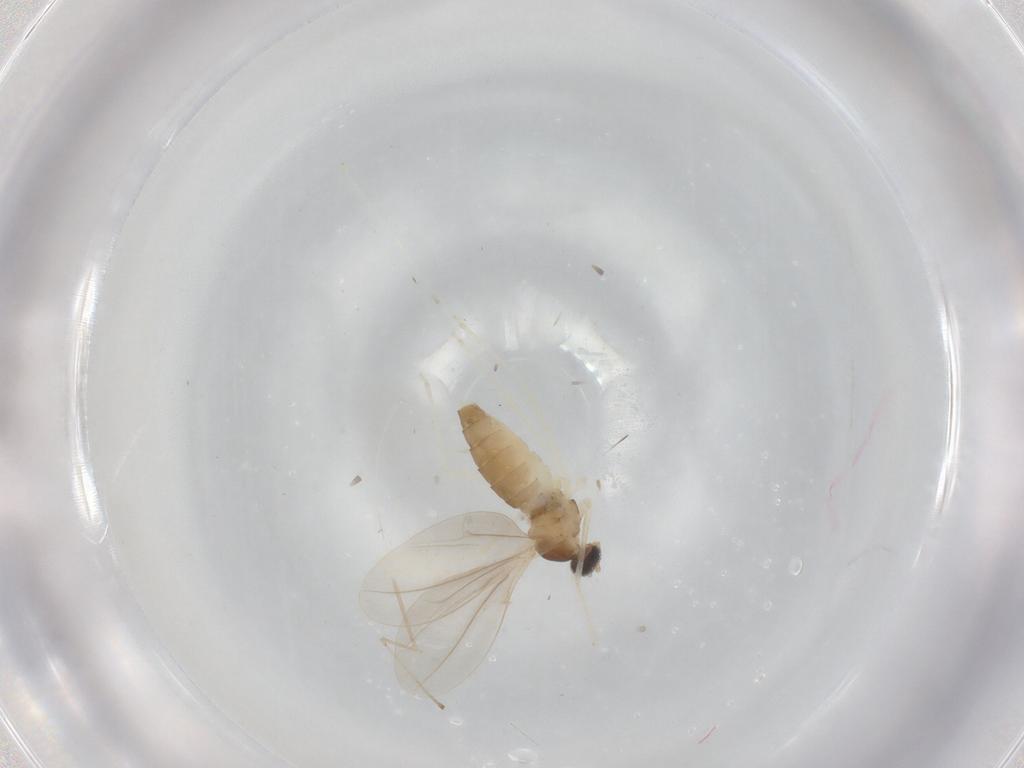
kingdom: Animalia
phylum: Arthropoda
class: Insecta
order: Diptera
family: Cecidomyiidae
